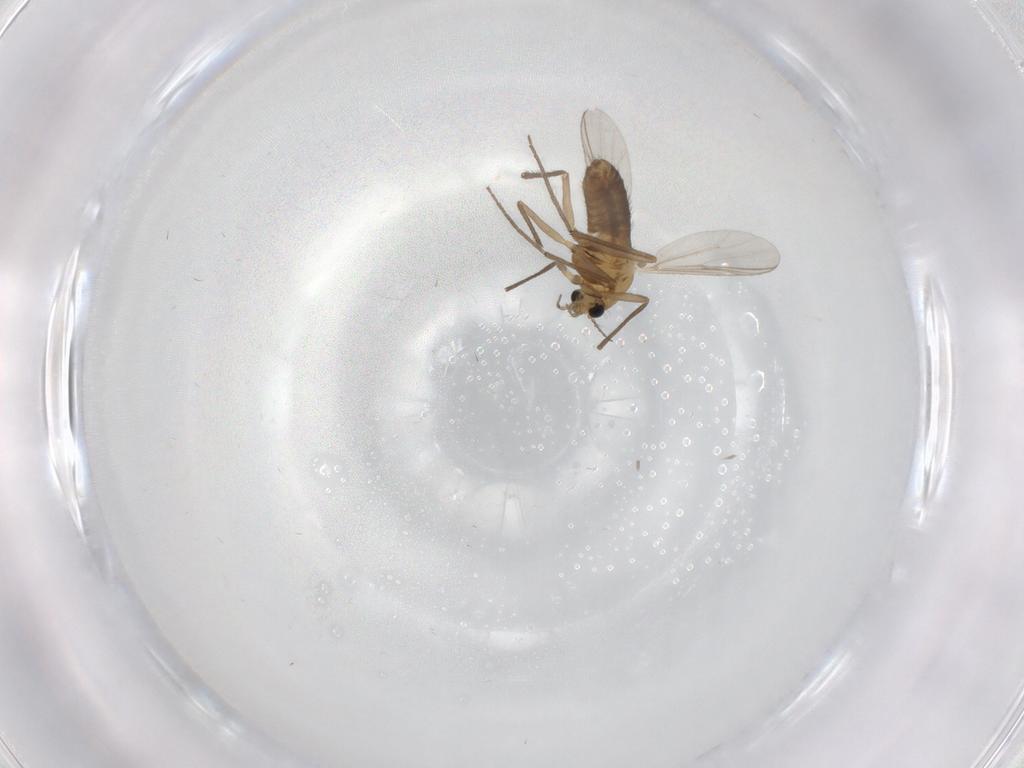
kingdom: Animalia
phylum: Arthropoda
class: Insecta
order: Diptera
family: Chironomidae
